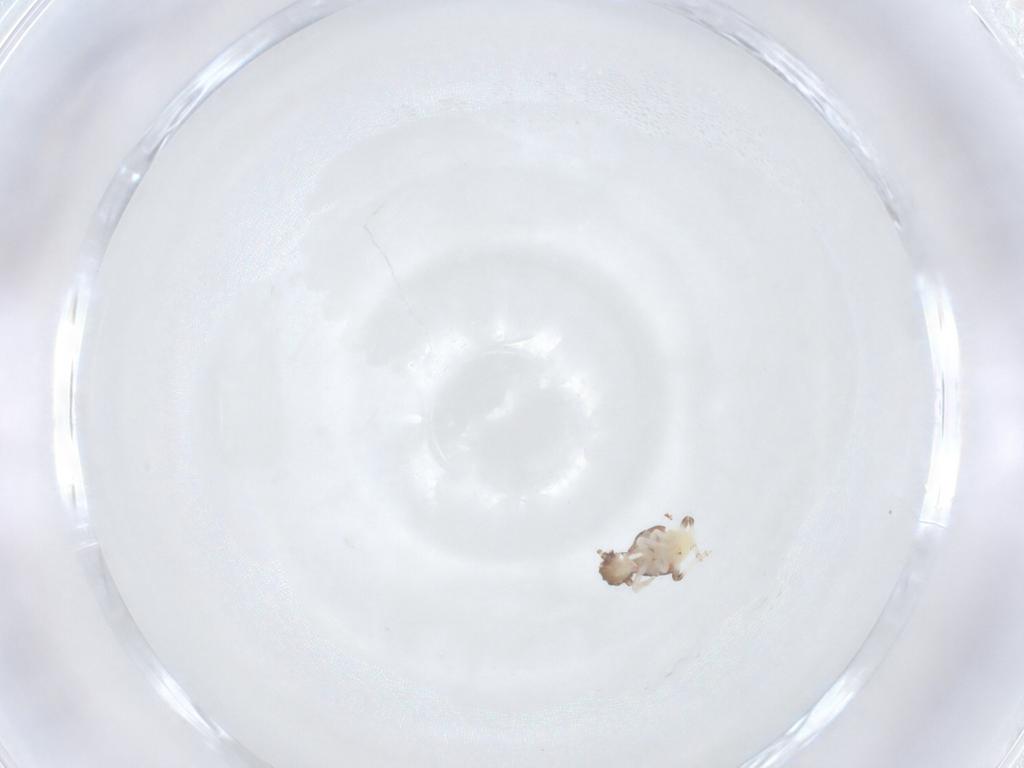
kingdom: Animalia
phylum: Arthropoda
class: Insecta
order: Hemiptera
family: Nogodinidae
